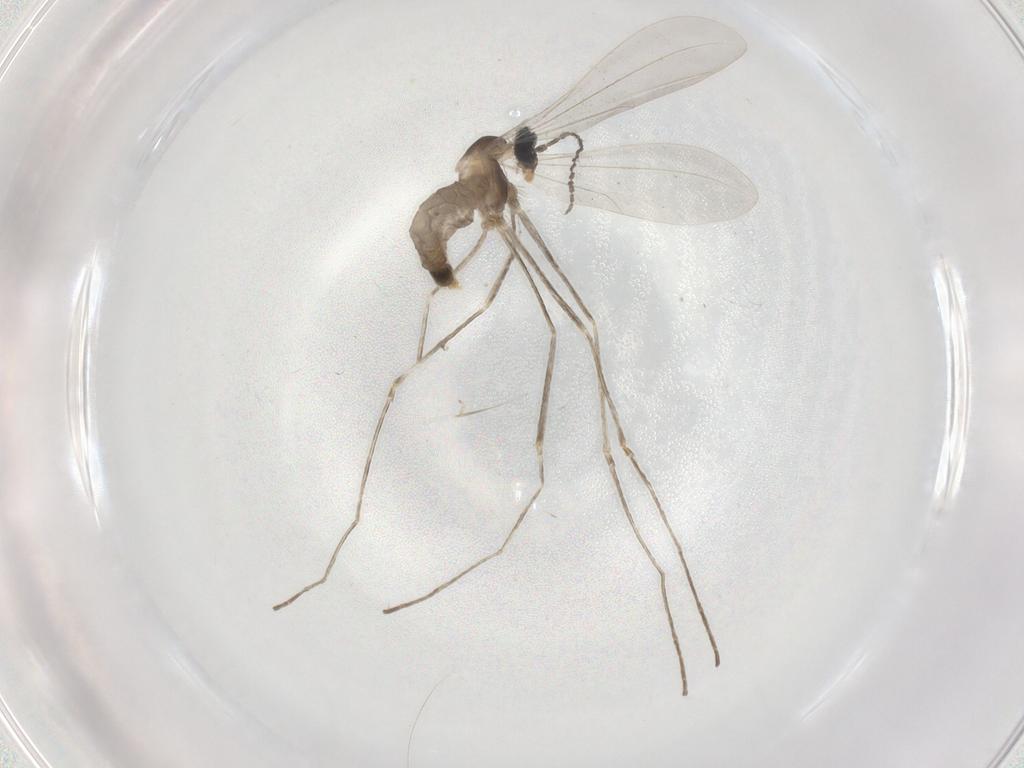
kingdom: Animalia
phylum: Arthropoda
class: Insecta
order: Diptera
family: Cecidomyiidae
